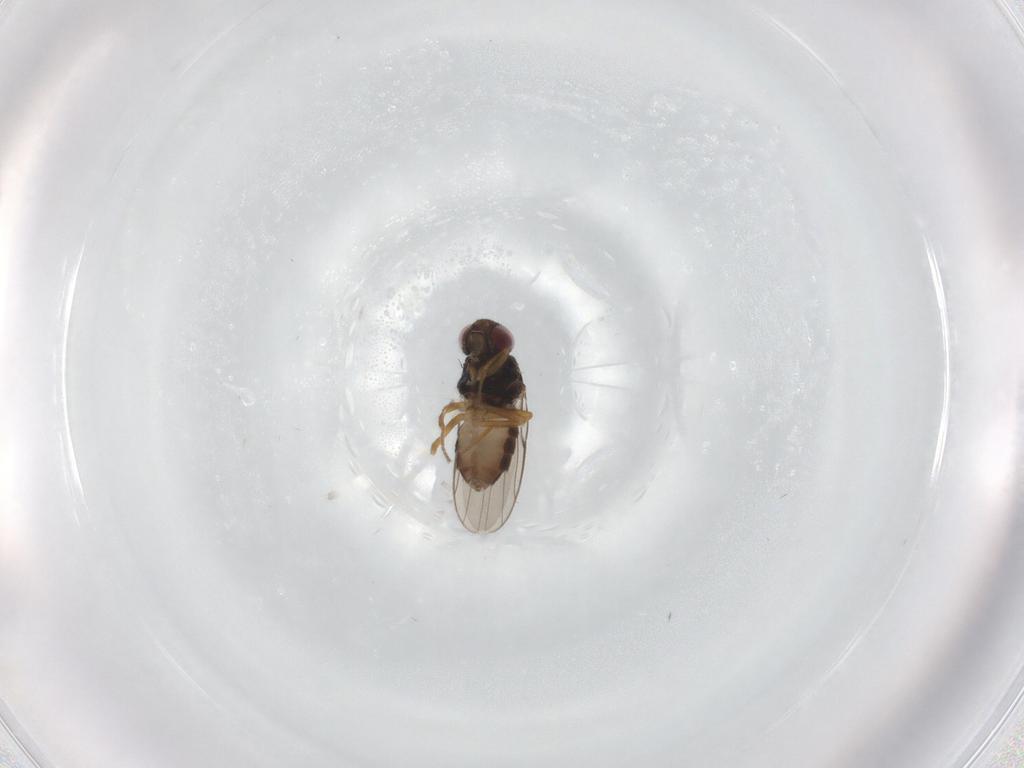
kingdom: Animalia
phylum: Arthropoda
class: Insecta
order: Diptera
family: Chloropidae
